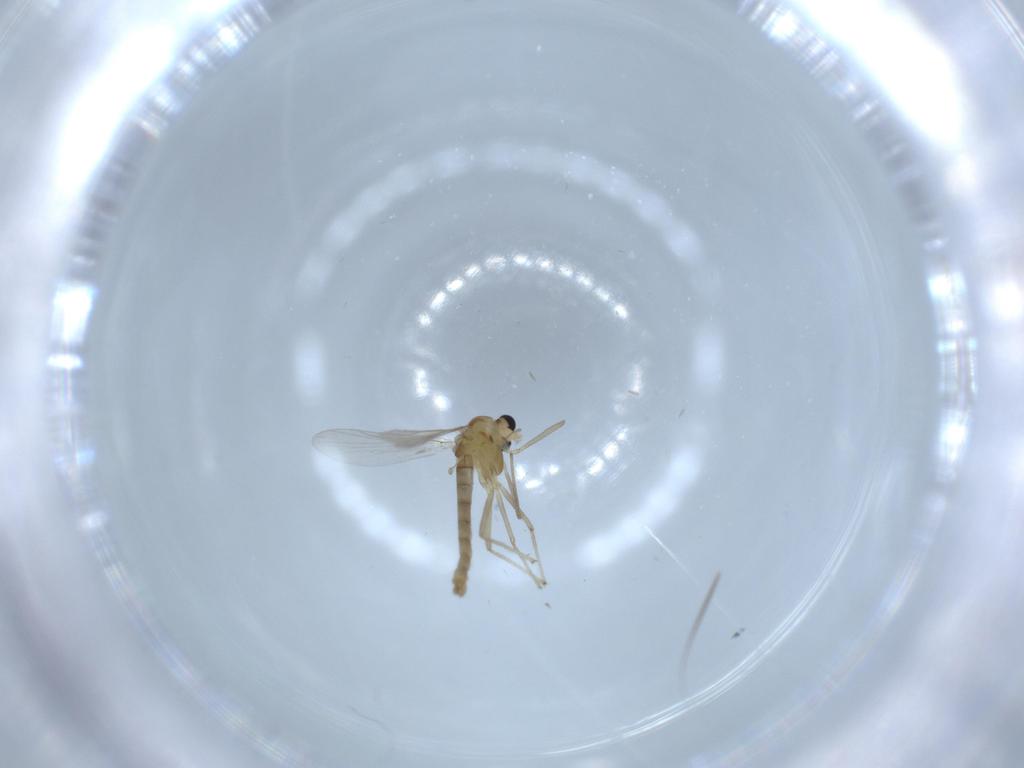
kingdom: Animalia
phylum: Arthropoda
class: Insecta
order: Diptera
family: Chironomidae
